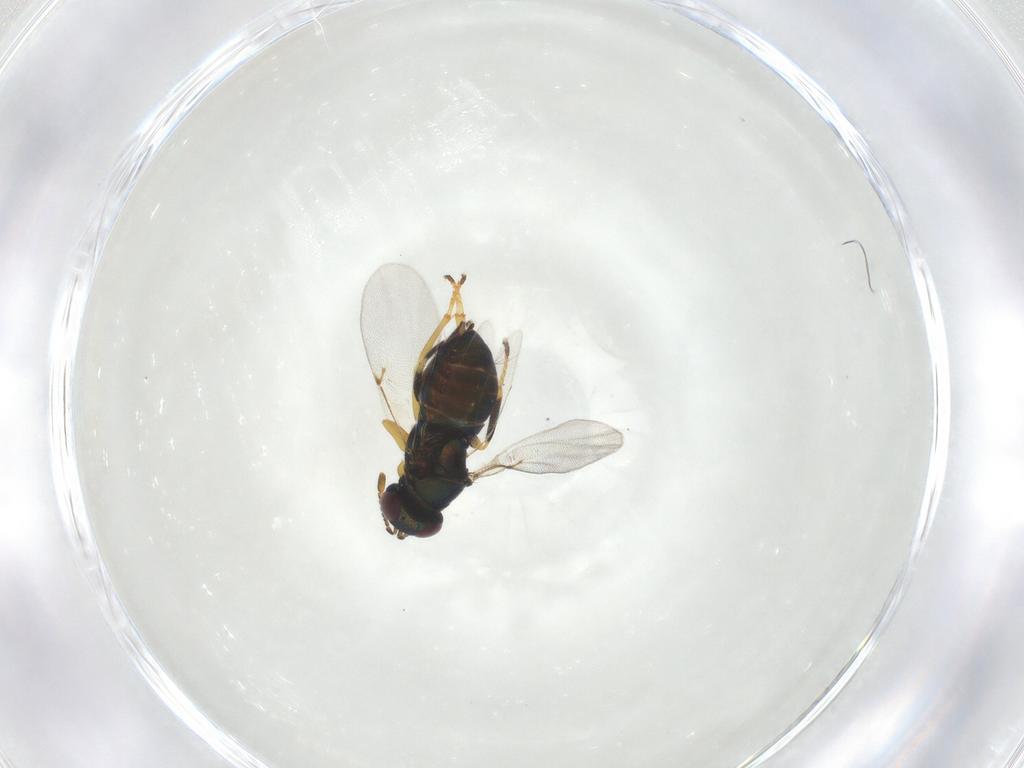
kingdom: Animalia
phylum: Arthropoda
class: Insecta
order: Hymenoptera
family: Encyrtidae
